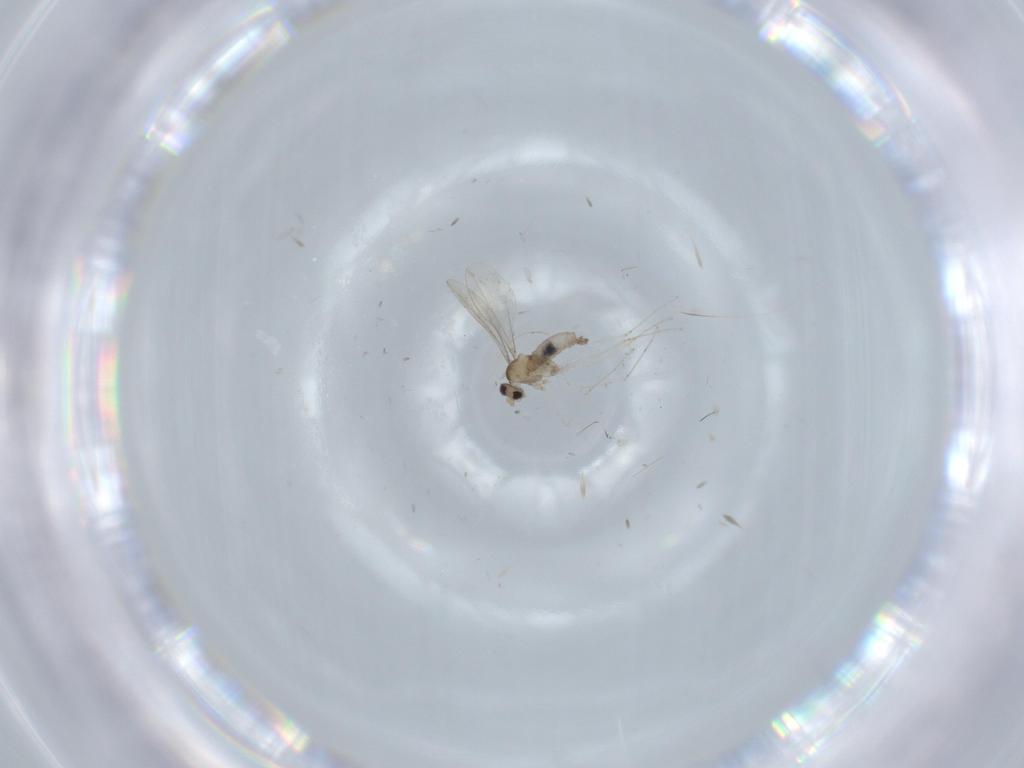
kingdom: Animalia
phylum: Arthropoda
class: Insecta
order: Diptera
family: Cecidomyiidae
